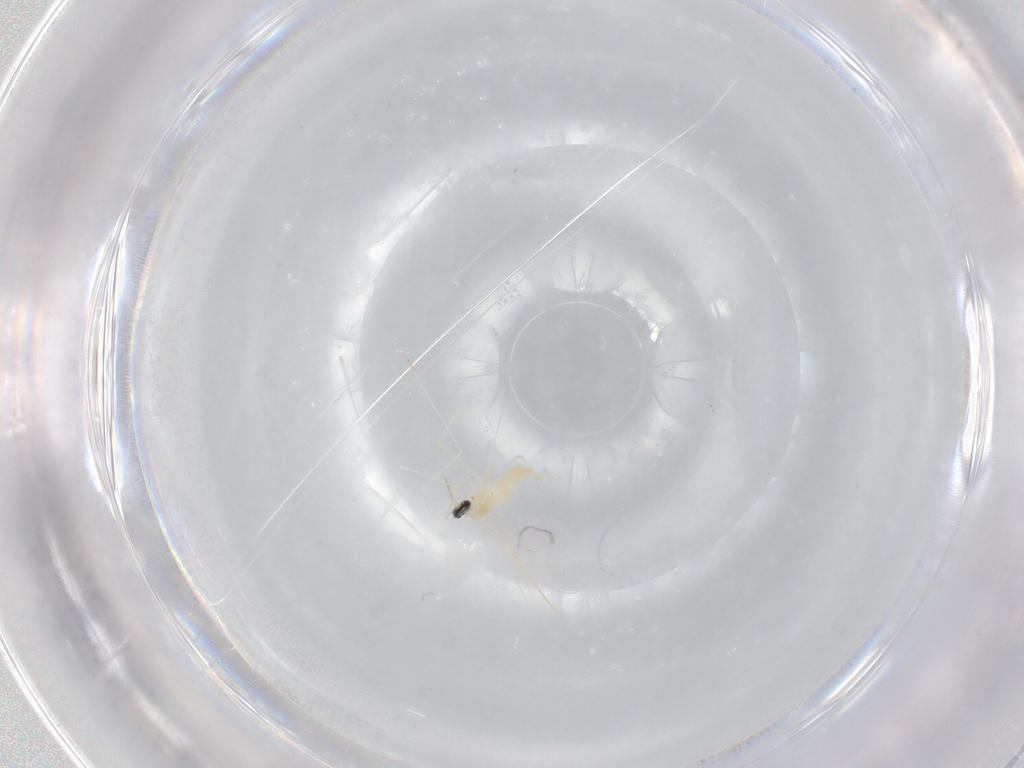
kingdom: Animalia
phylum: Arthropoda
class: Insecta
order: Diptera
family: Cecidomyiidae
